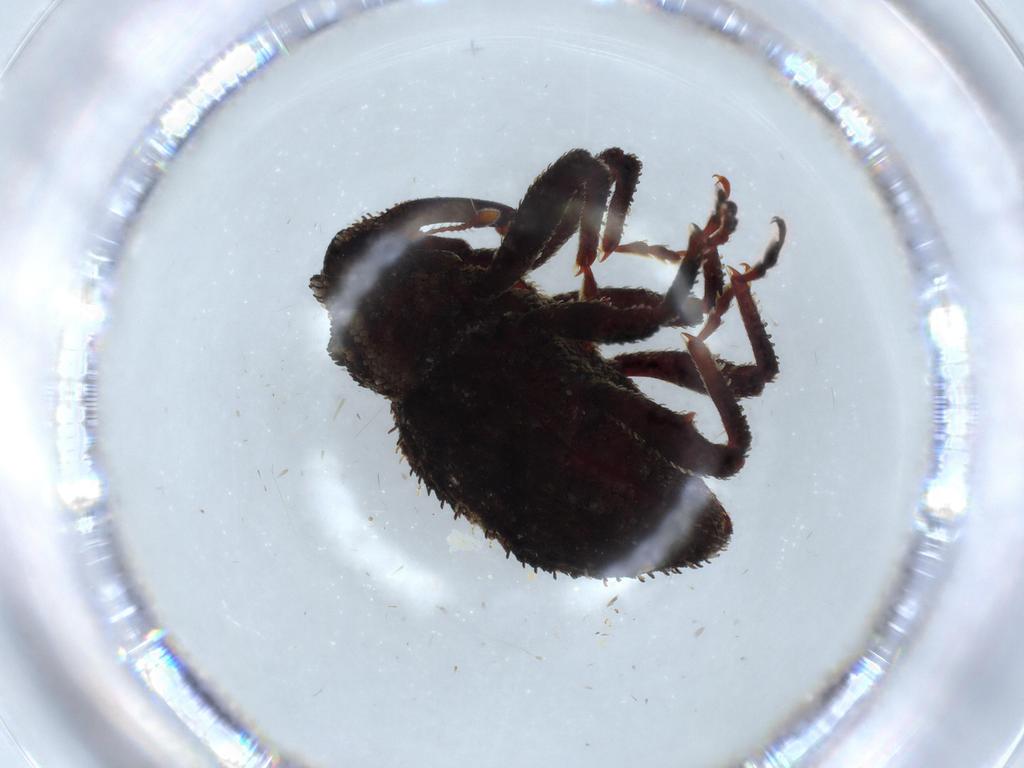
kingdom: Animalia
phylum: Arthropoda
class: Insecta
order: Coleoptera
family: Chrysomelidae
